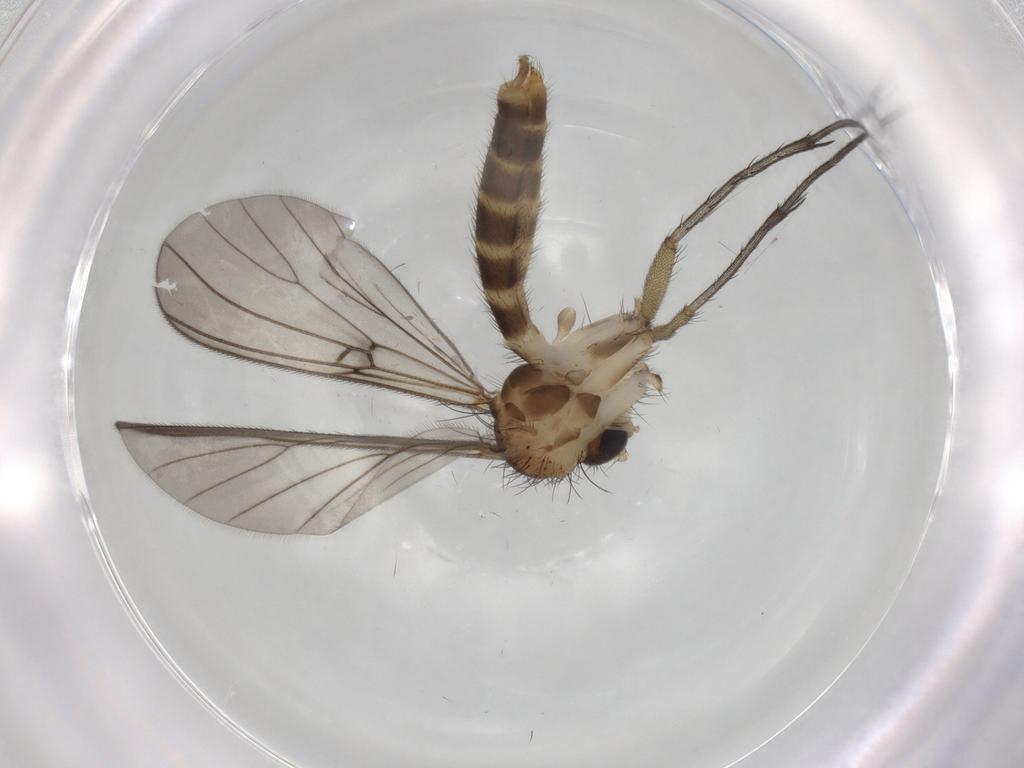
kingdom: Animalia
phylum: Arthropoda
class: Insecta
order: Diptera
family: Mycetophilidae
